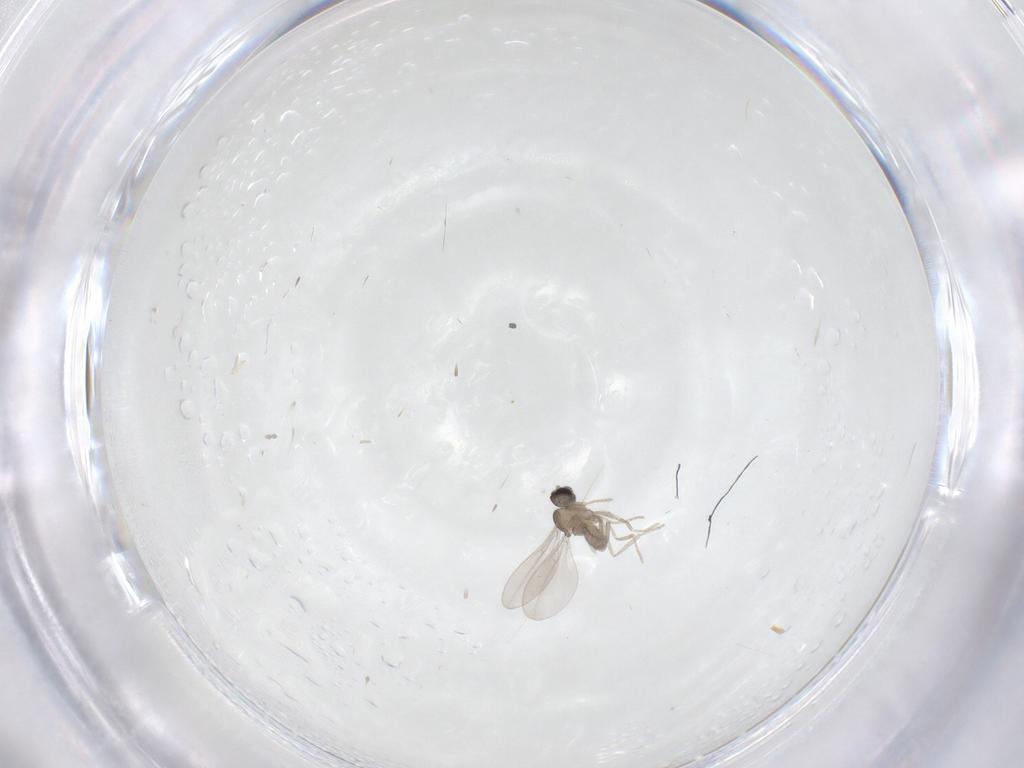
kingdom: Animalia
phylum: Arthropoda
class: Insecta
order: Diptera
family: Cecidomyiidae
